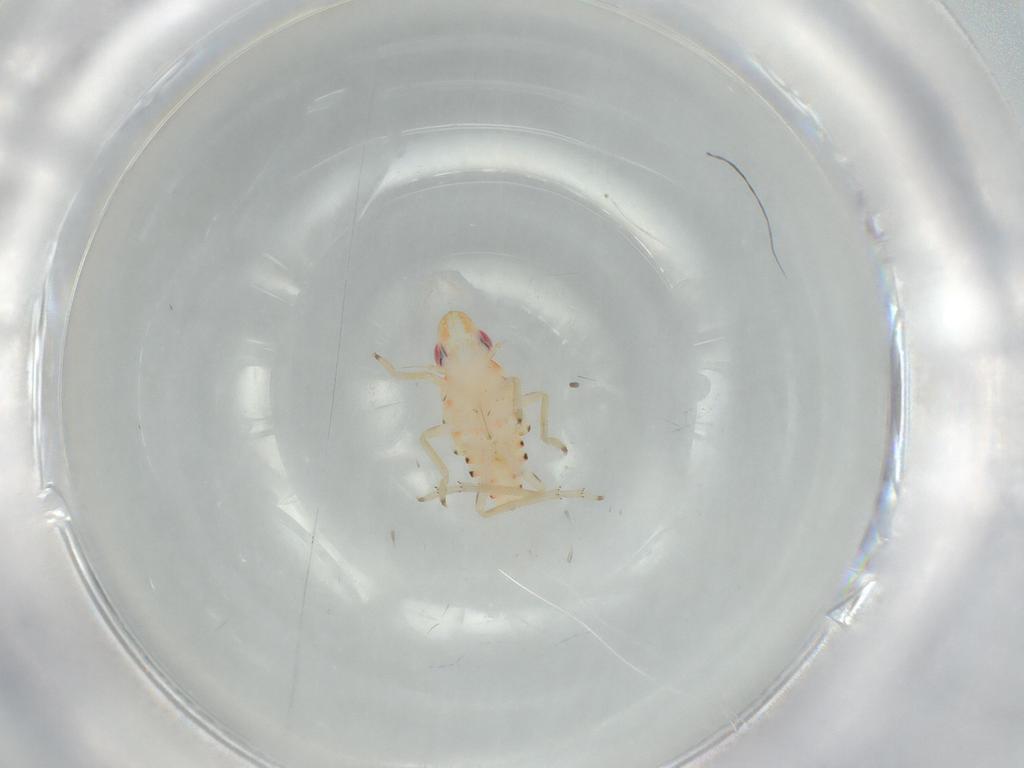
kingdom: Animalia
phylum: Arthropoda
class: Insecta
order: Hemiptera
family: Tropiduchidae
